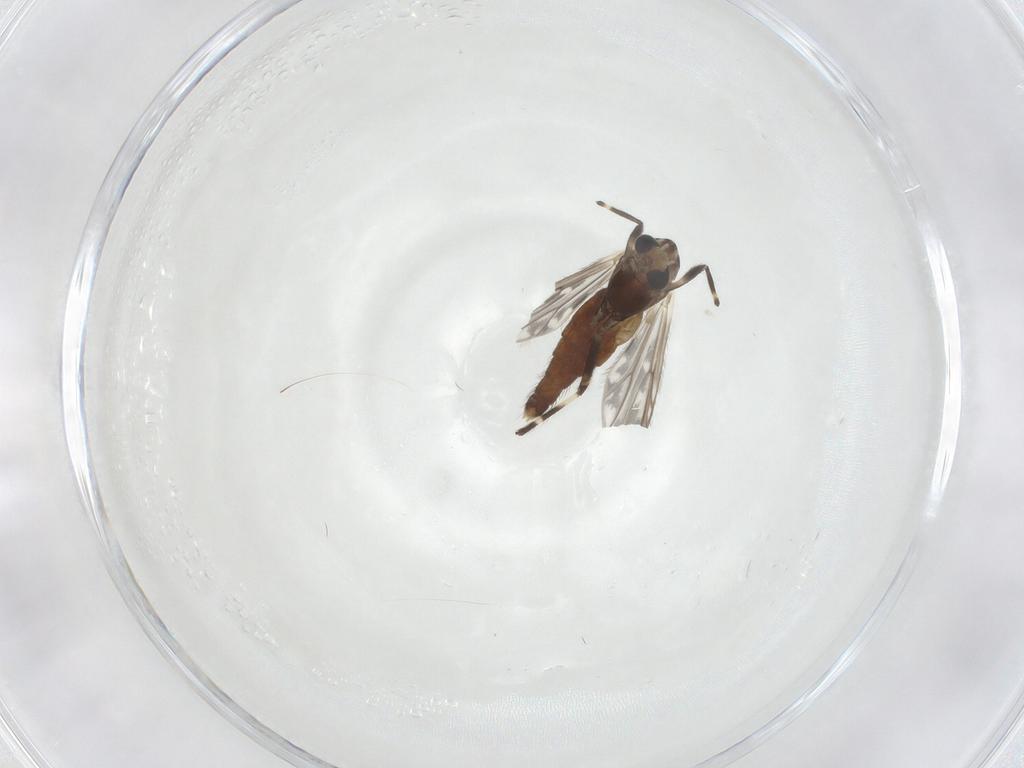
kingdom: Animalia
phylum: Arthropoda
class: Insecta
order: Diptera
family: Chironomidae
